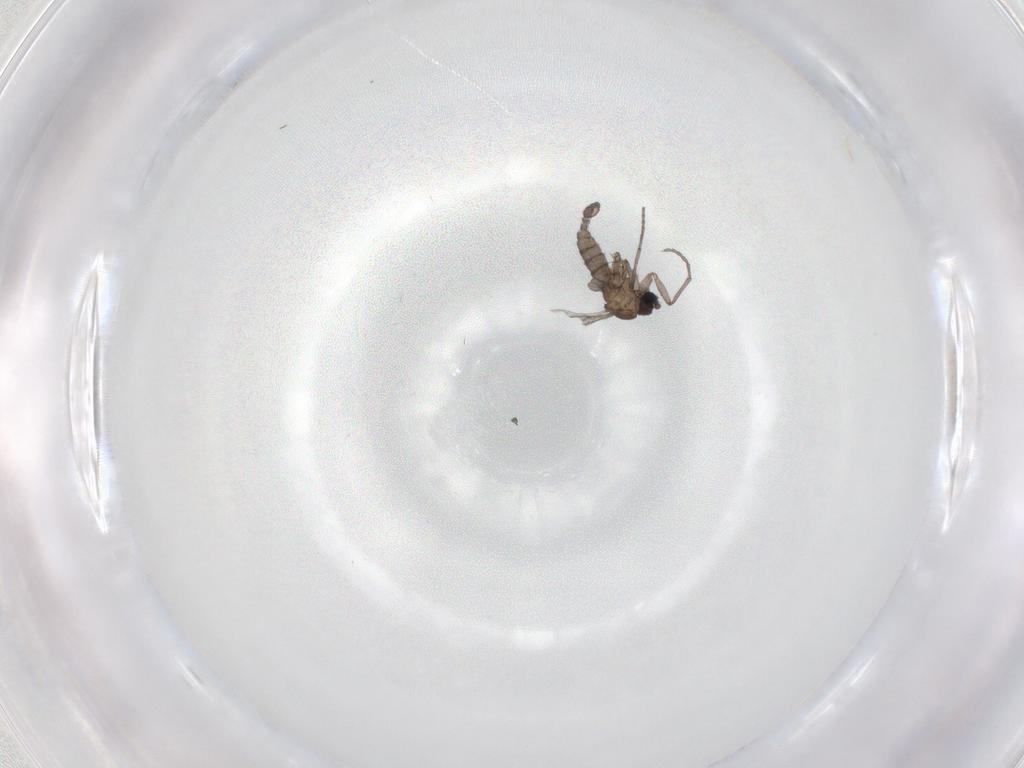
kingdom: Animalia
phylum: Arthropoda
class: Insecta
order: Diptera
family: Sciaridae
